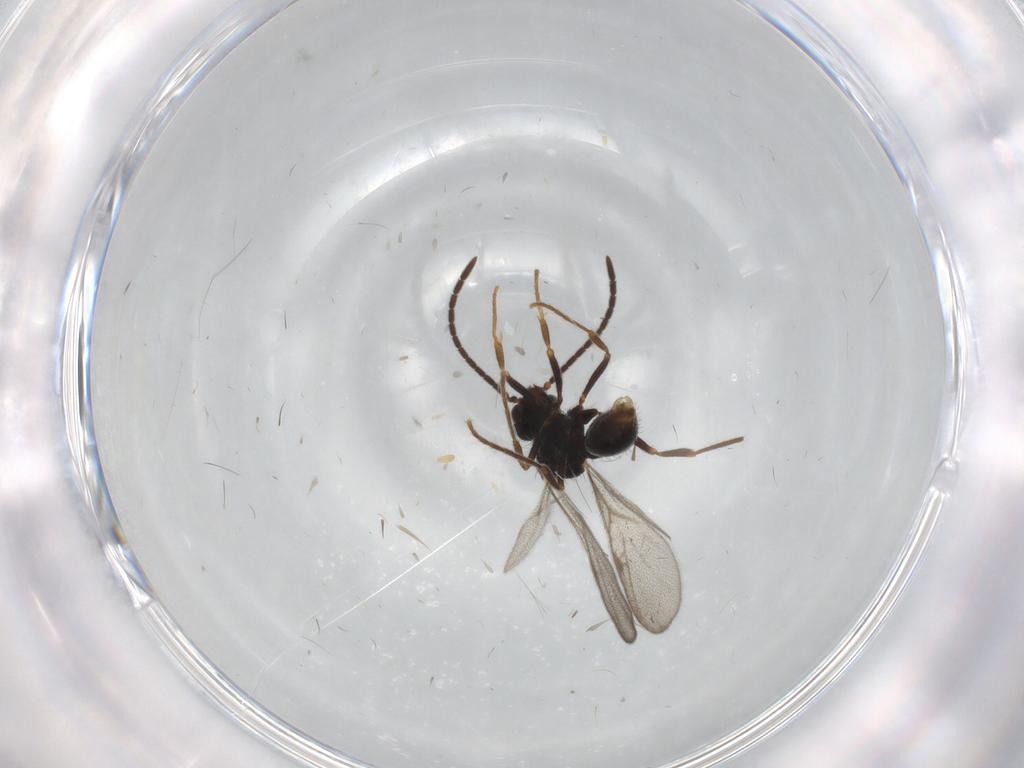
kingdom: Animalia
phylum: Arthropoda
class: Insecta
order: Hymenoptera
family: Formicidae
